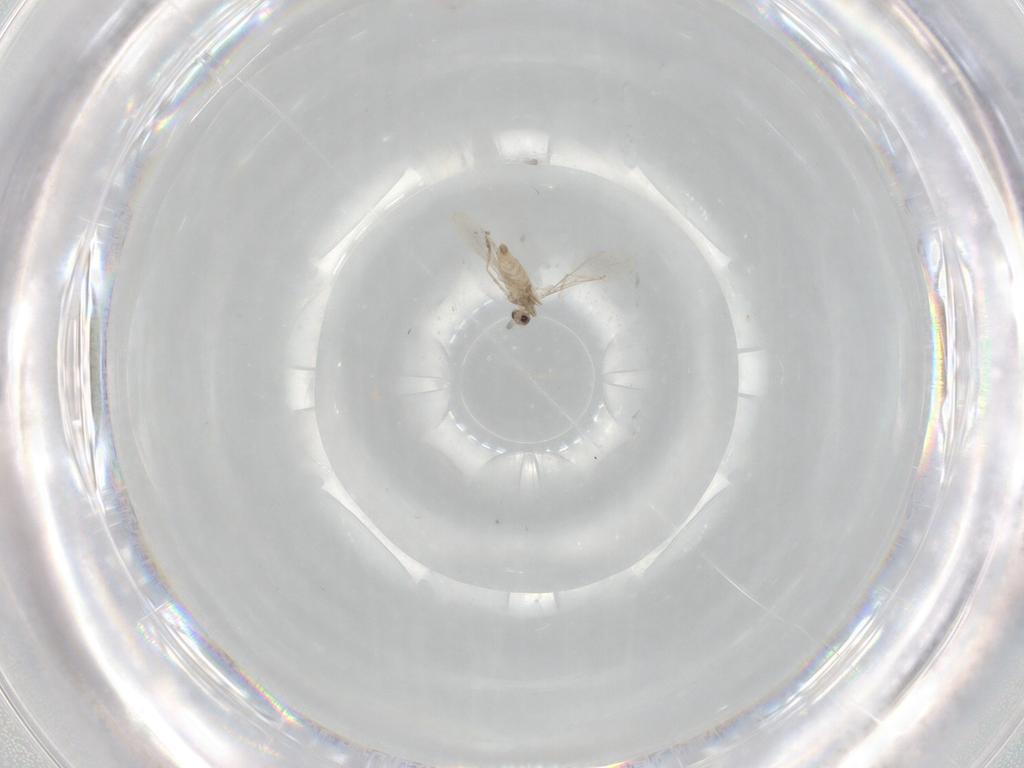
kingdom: Animalia
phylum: Arthropoda
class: Insecta
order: Diptera
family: Cecidomyiidae
